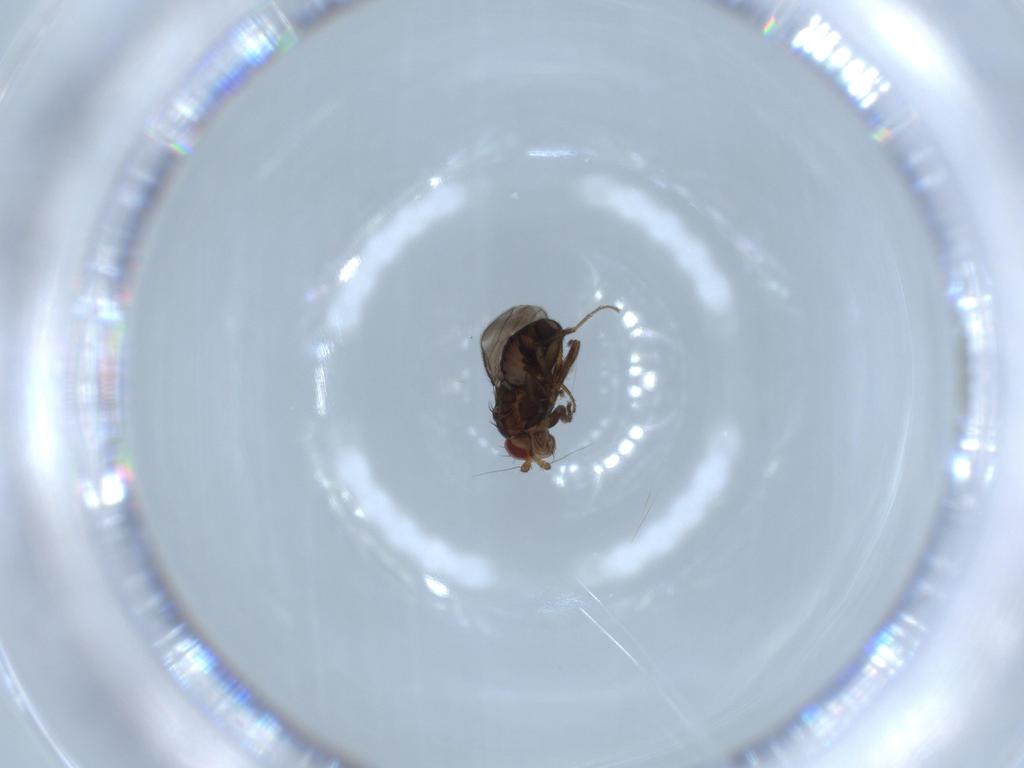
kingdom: Animalia
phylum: Arthropoda
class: Insecta
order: Diptera
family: Sphaeroceridae
